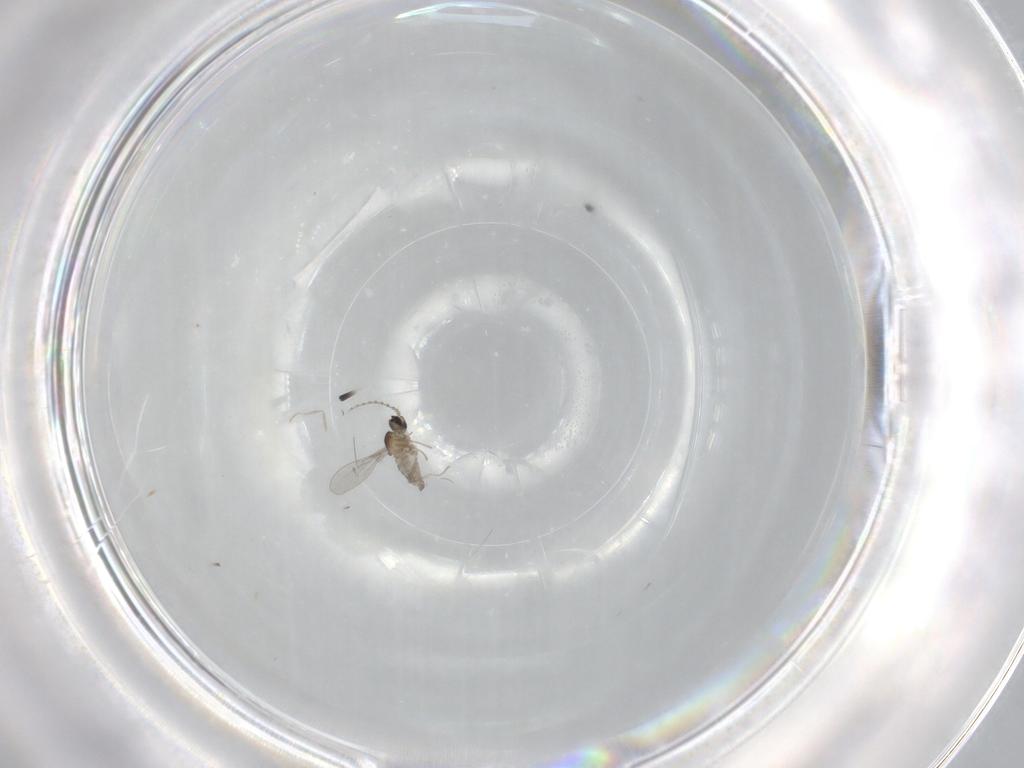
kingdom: Animalia
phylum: Arthropoda
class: Insecta
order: Diptera
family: Cecidomyiidae
